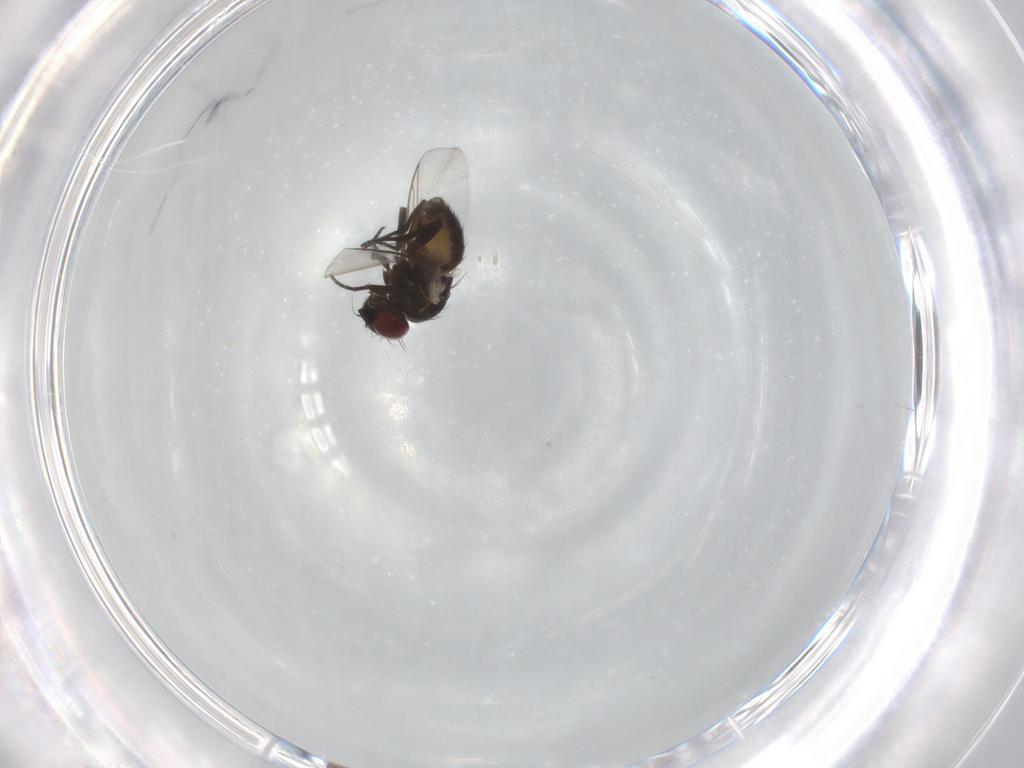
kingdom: Animalia
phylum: Arthropoda
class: Insecta
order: Diptera
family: Agromyzidae
